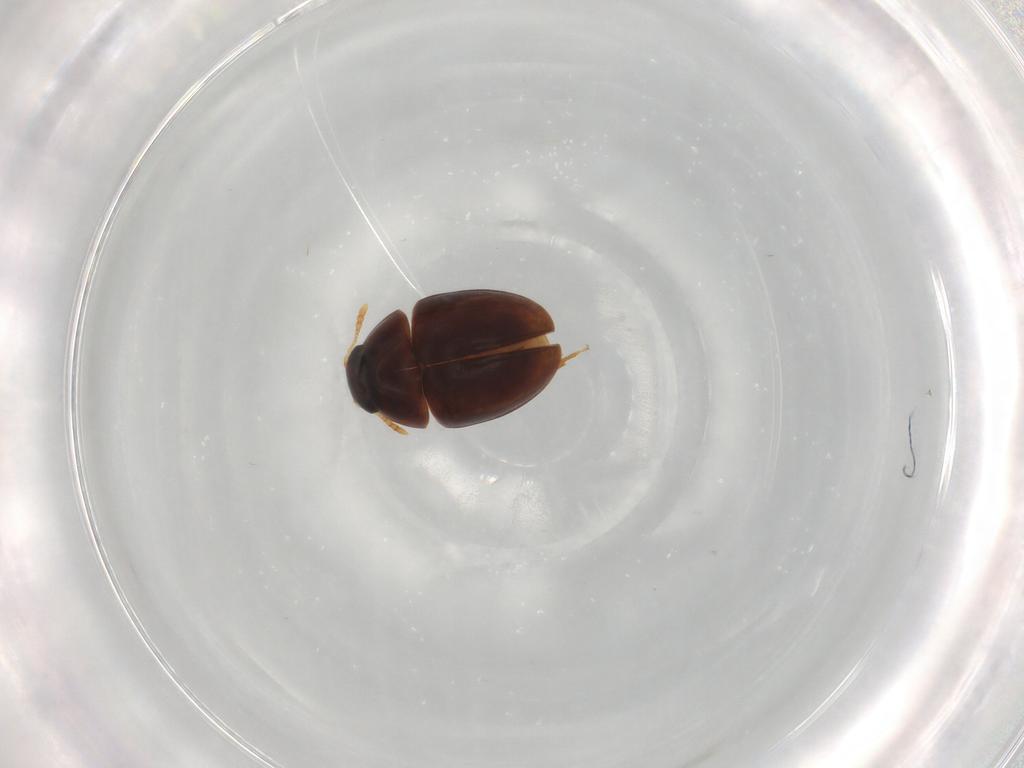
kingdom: Animalia
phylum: Arthropoda
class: Insecta
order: Coleoptera
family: Phalacridae
